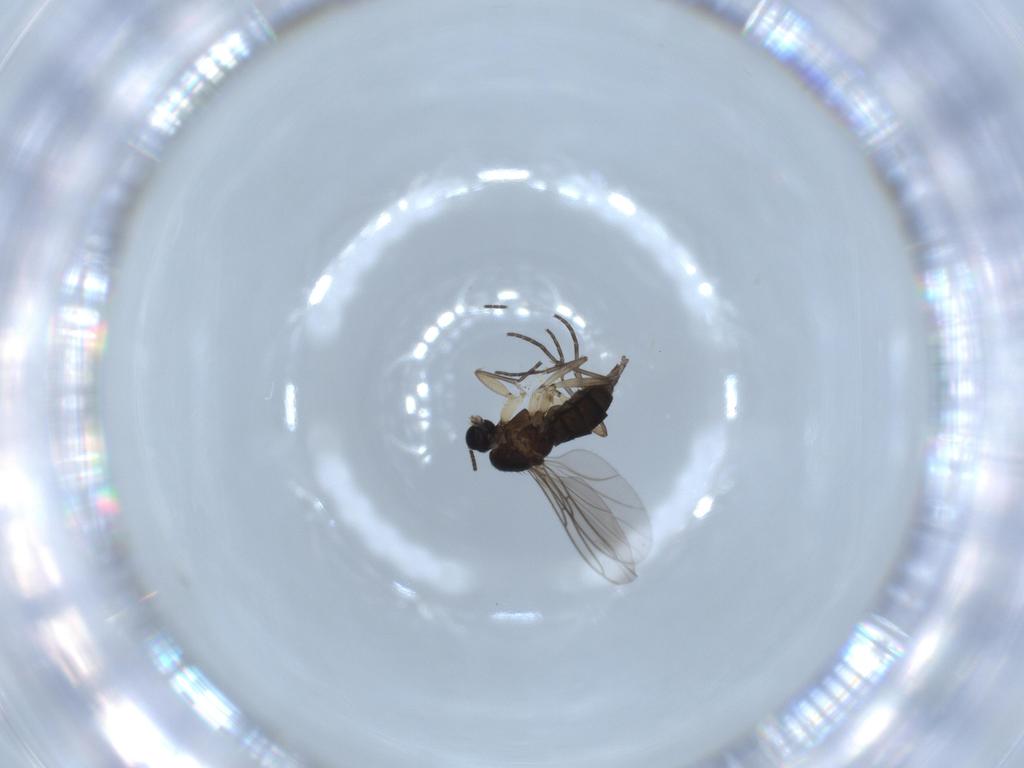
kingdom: Animalia
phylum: Arthropoda
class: Insecta
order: Diptera
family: Sciaridae
